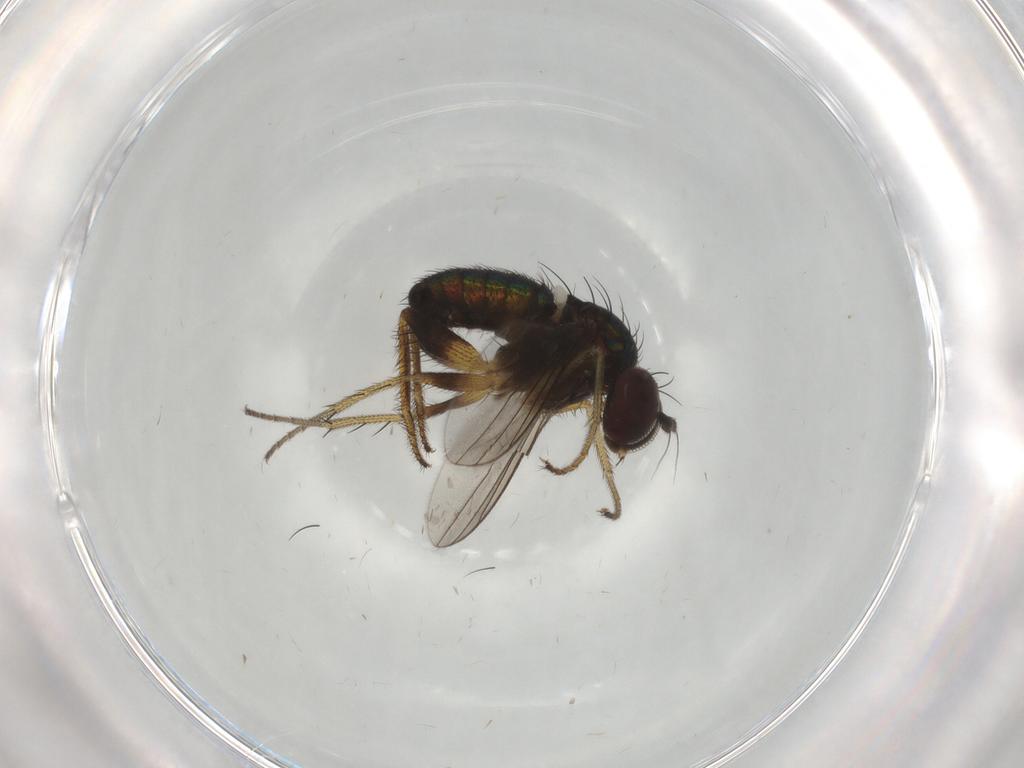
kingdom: Animalia
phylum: Arthropoda
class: Insecta
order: Diptera
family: Dolichopodidae
